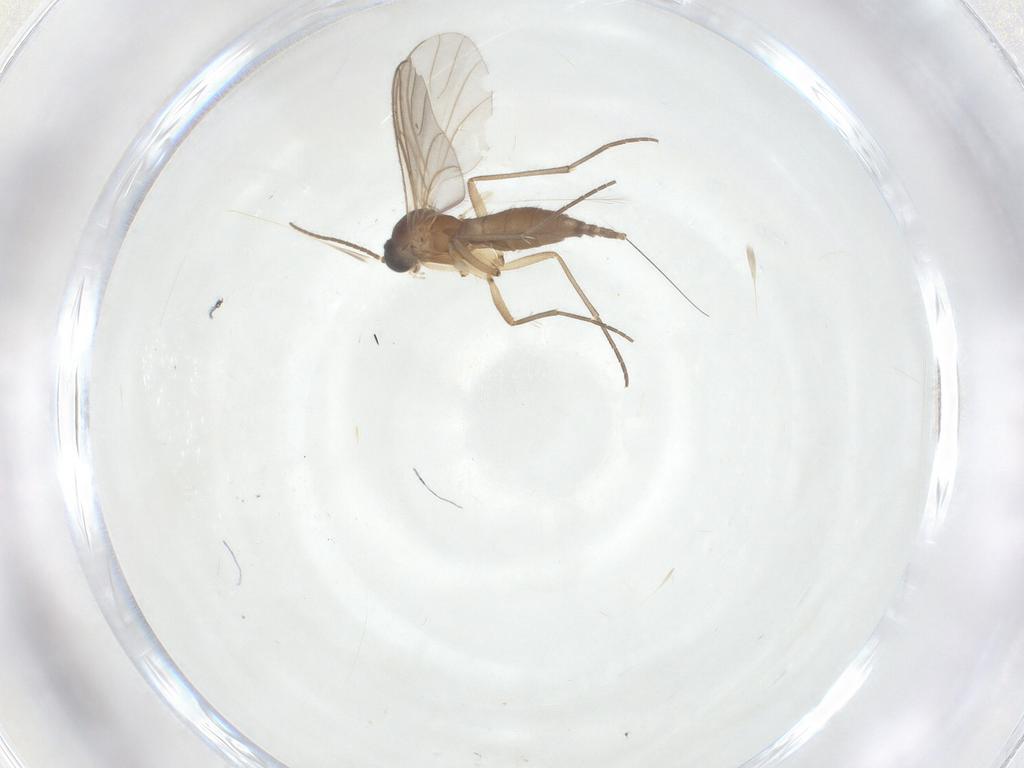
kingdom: Animalia
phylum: Arthropoda
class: Insecta
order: Diptera
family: Sciaridae
